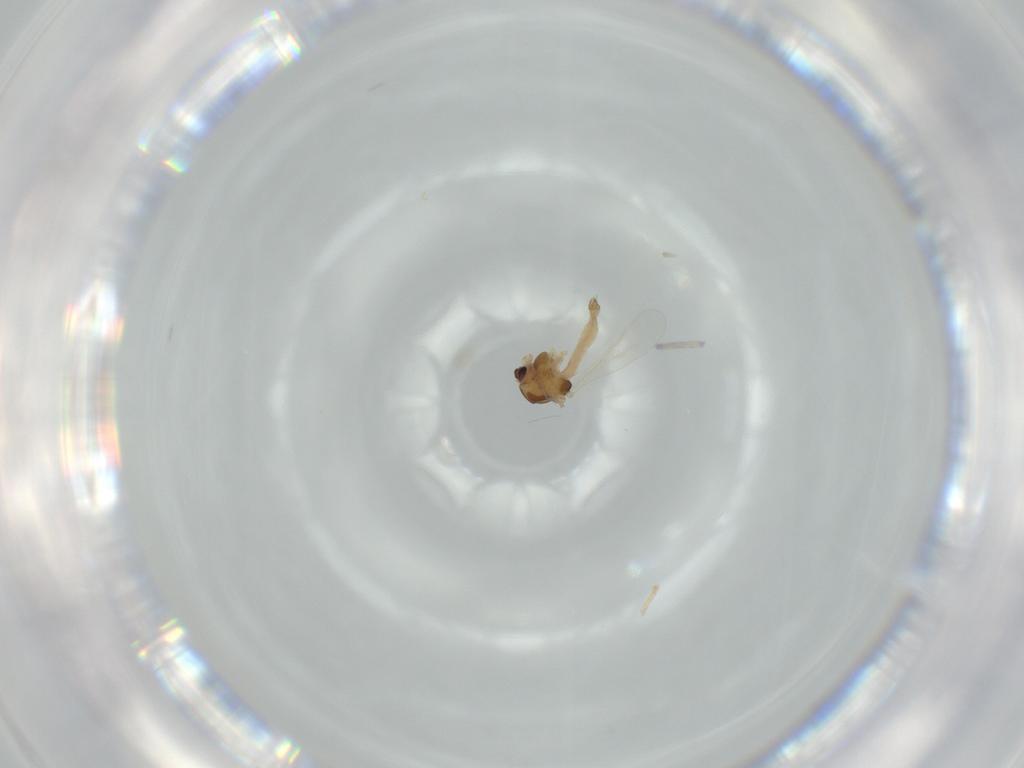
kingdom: Animalia
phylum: Arthropoda
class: Insecta
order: Diptera
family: Chironomidae
